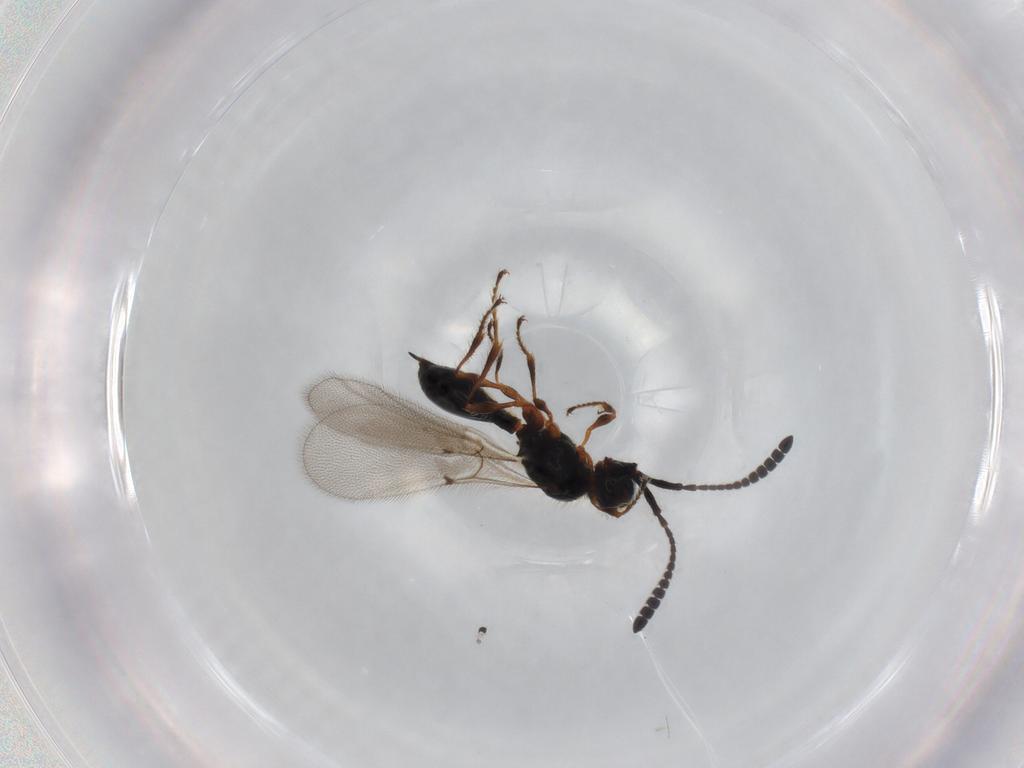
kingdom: Animalia
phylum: Arthropoda
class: Insecta
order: Hymenoptera
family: Diapriidae
